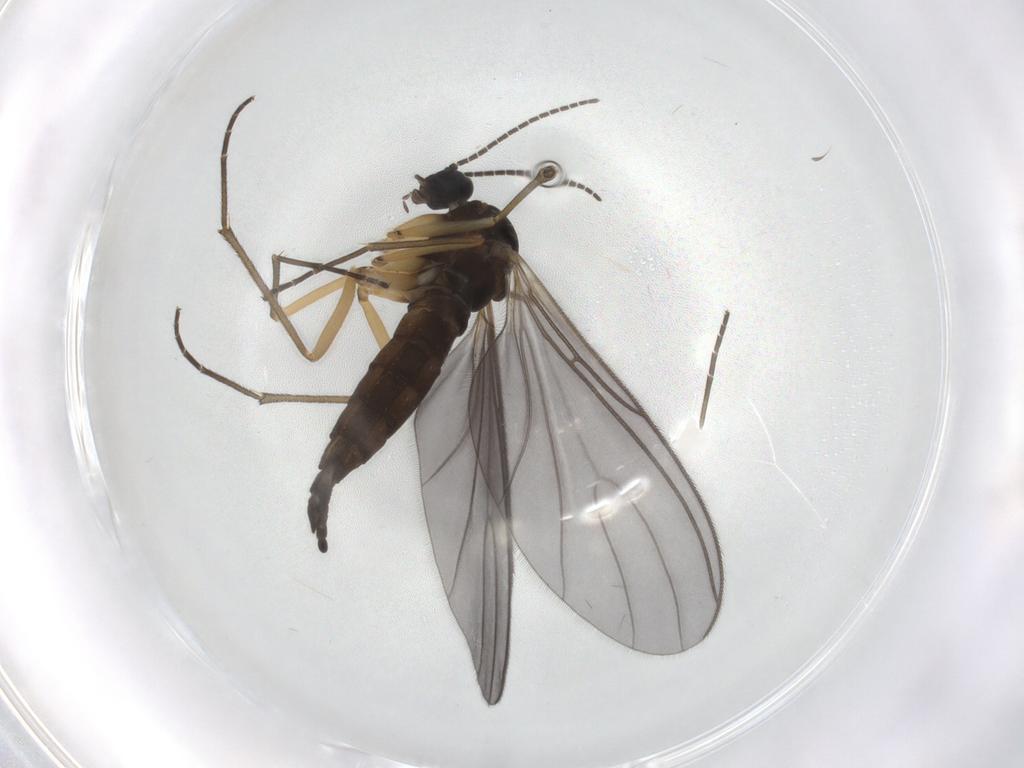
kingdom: Animalia
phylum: Arthropoda
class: Insecta
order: Diptera
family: Sciaridae
